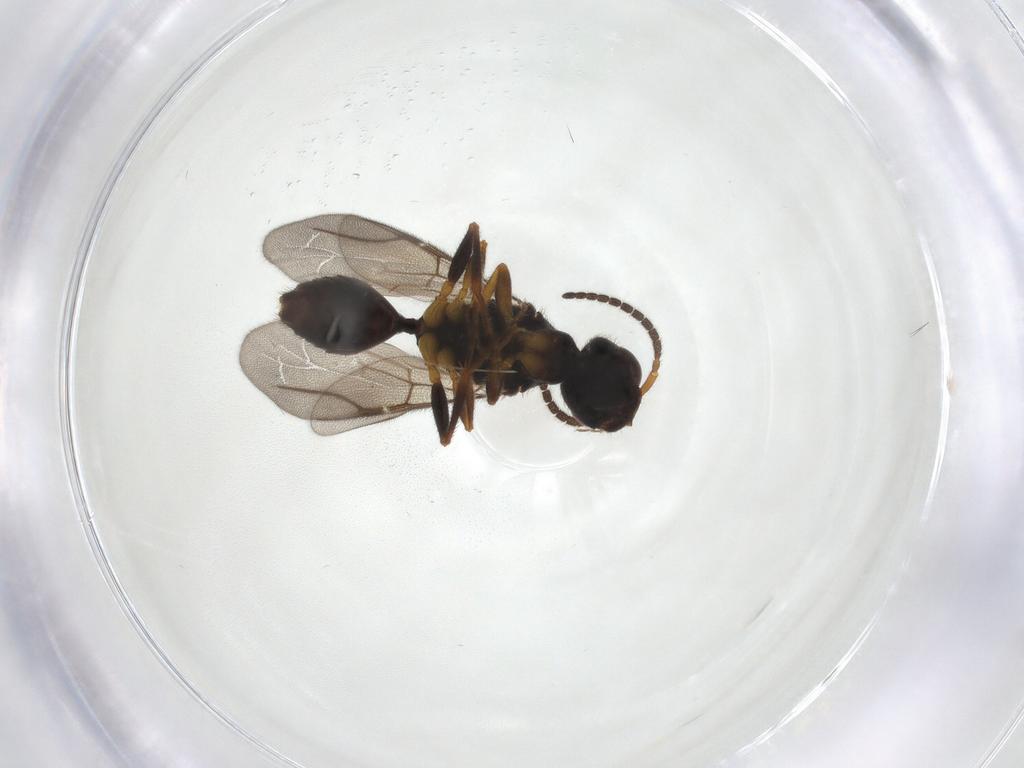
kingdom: Animalia
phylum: Arthropoda
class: Insecta
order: Hymenoptera
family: Bethylidae
